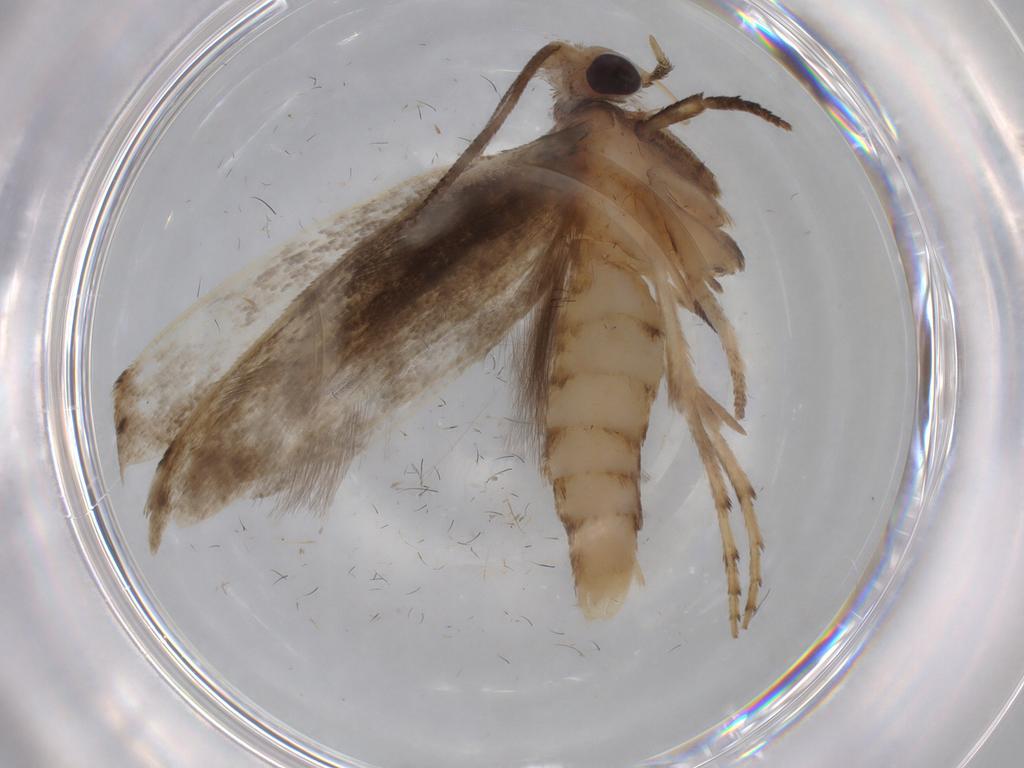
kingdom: Animalia
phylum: Arthropoda
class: Insecta
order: Lepidoptera
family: Yponomeutidae
